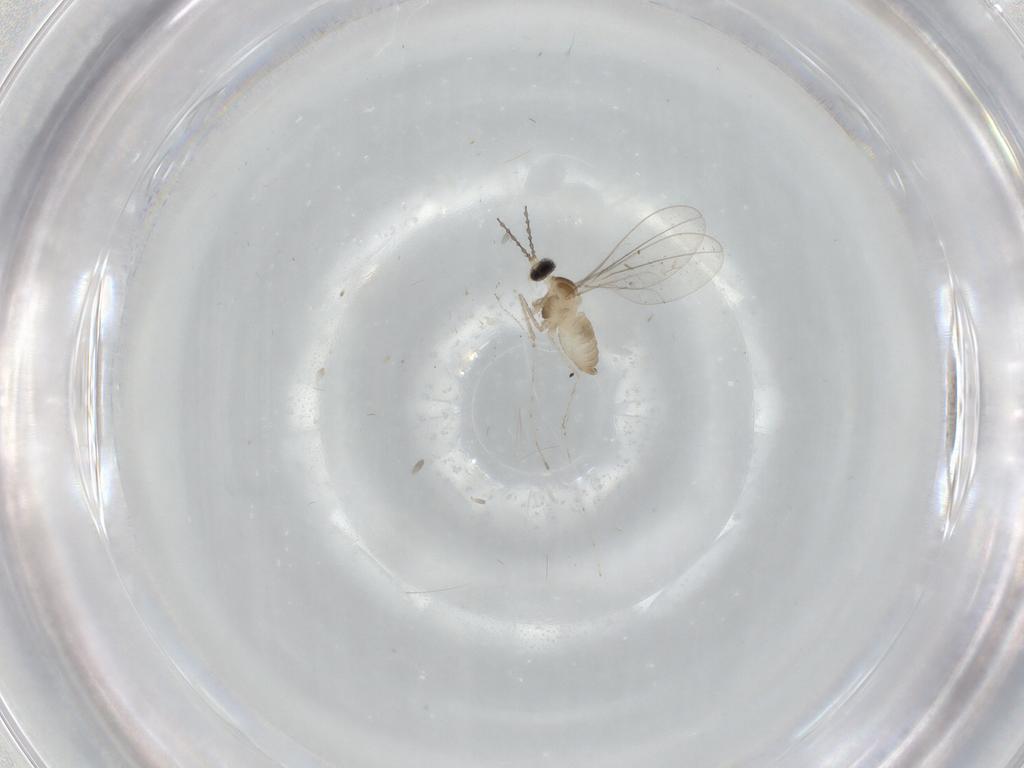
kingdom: Animalia
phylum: Arthropoda
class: Insecta
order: Diptera
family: Cecidomyiidae
